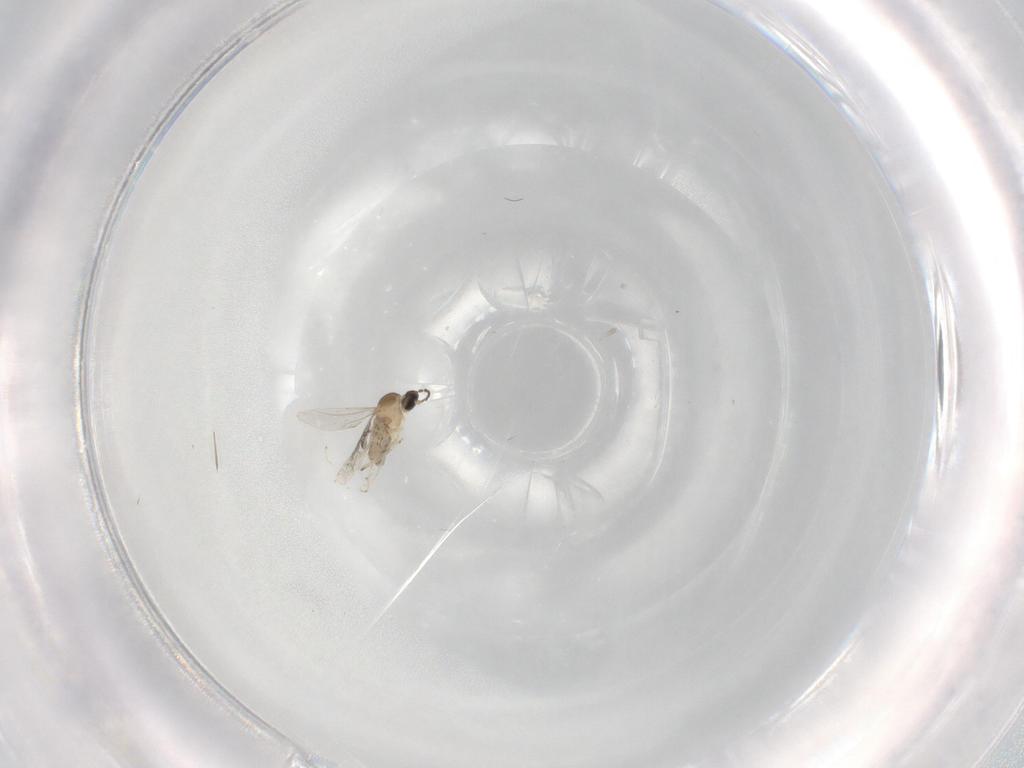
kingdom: Animalia
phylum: Arthropoda
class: Insecta
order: Diptera
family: Cecidomyiidae
